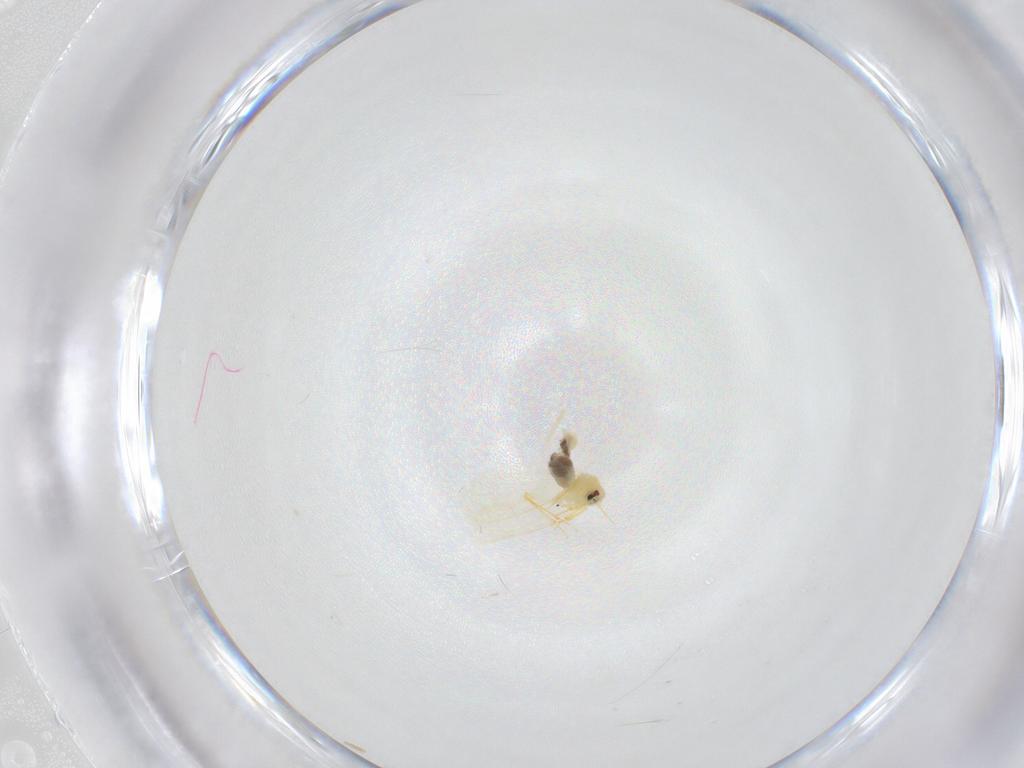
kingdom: Animalia
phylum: Arthropoda
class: Insecta
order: Hemiptera
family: Aleyrodidae
